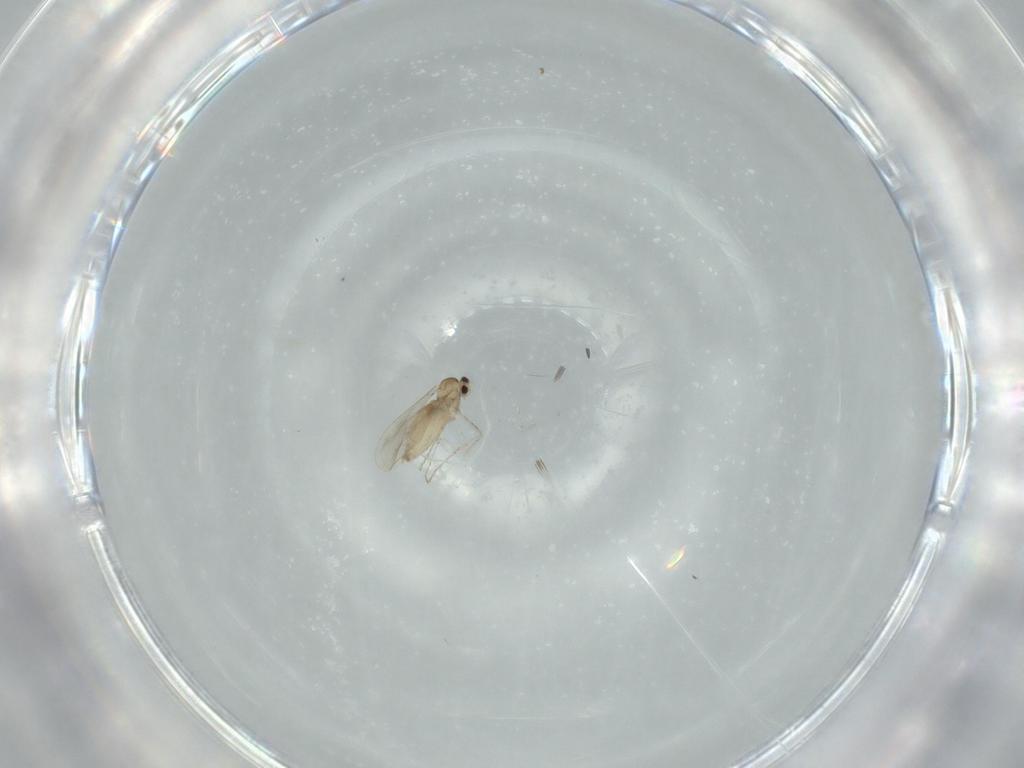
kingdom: Animalia
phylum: Arthropoda
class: Insecta
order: Diptera
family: Cecidomyiidae
